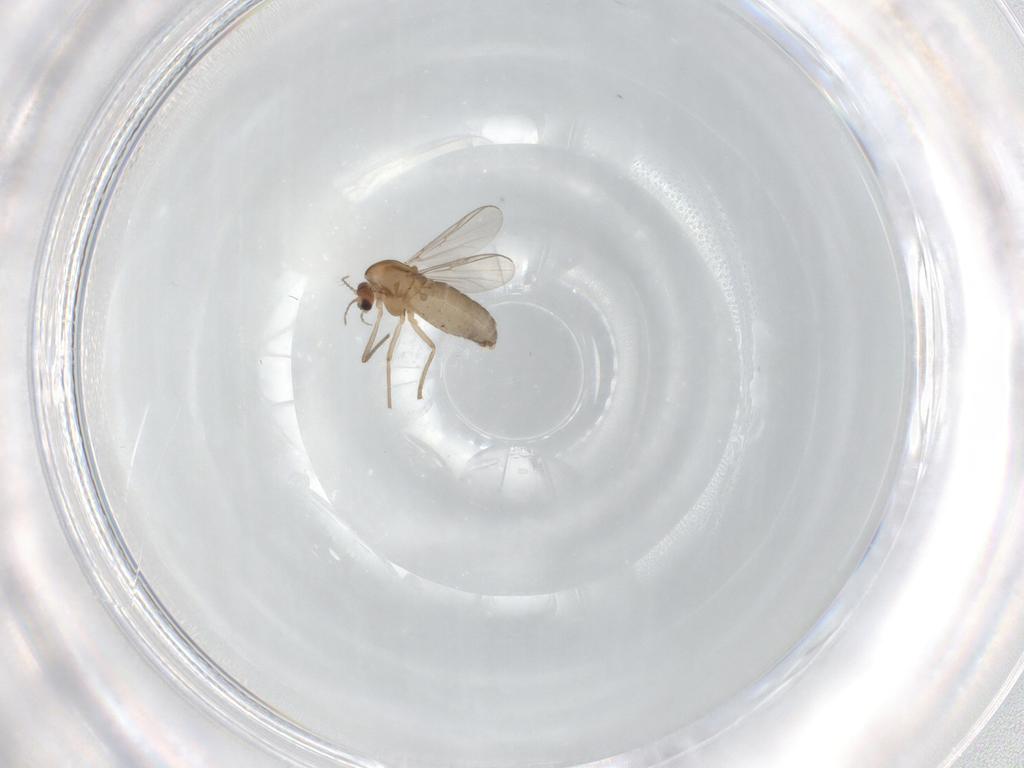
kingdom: Animalia
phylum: Arthropoda
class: Insecta
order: Diptera
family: Chironomidae
